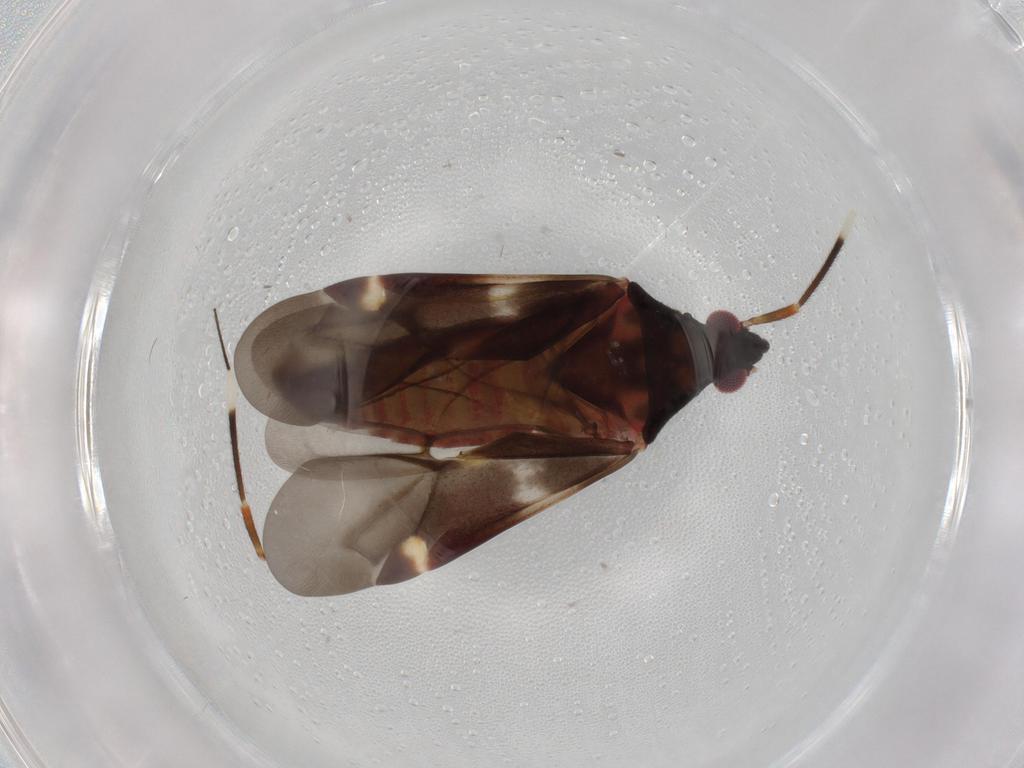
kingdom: Animalia
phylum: Arthropoda
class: Insecta
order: Hemiptera
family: Miridae
